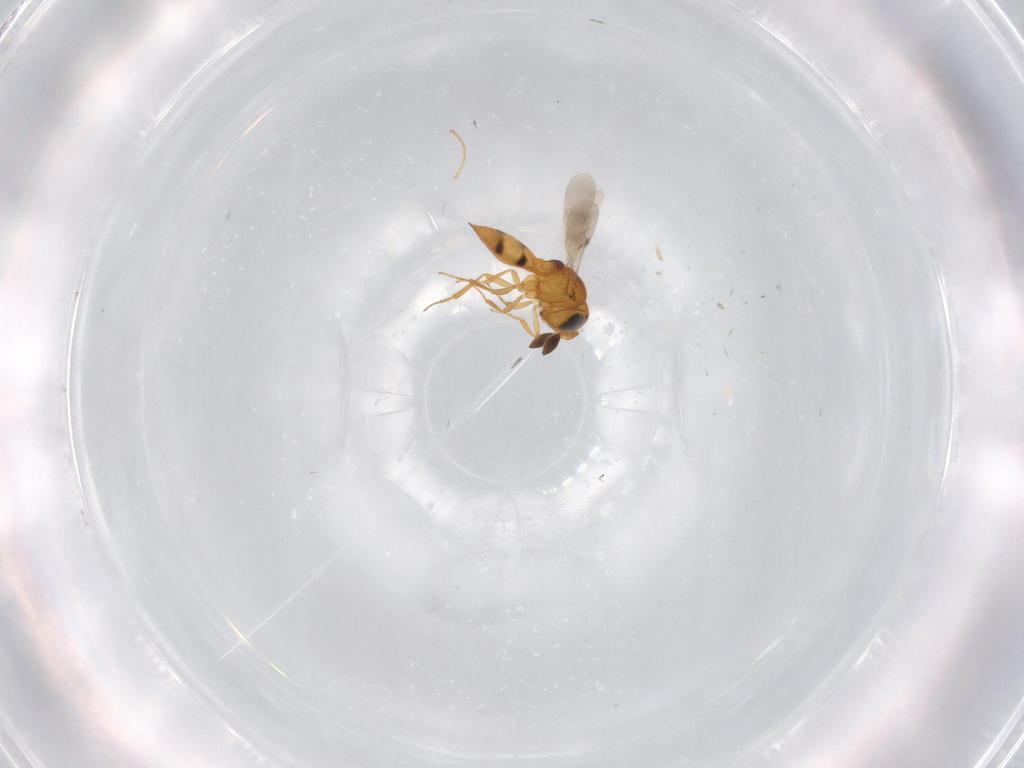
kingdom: Animalia
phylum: Arthropoda
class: Insecta
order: Hymenoptera
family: Scelionidae
